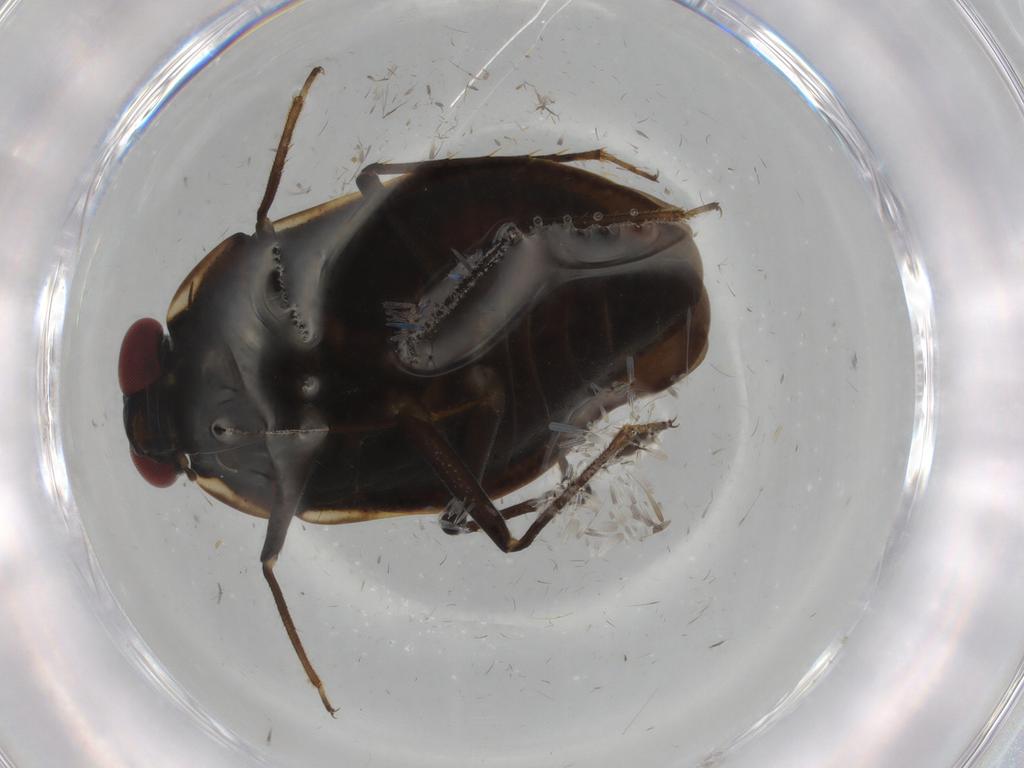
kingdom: Animalia
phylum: Arthropoda
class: Insecta
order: Hemiptera
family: Ochteridae
